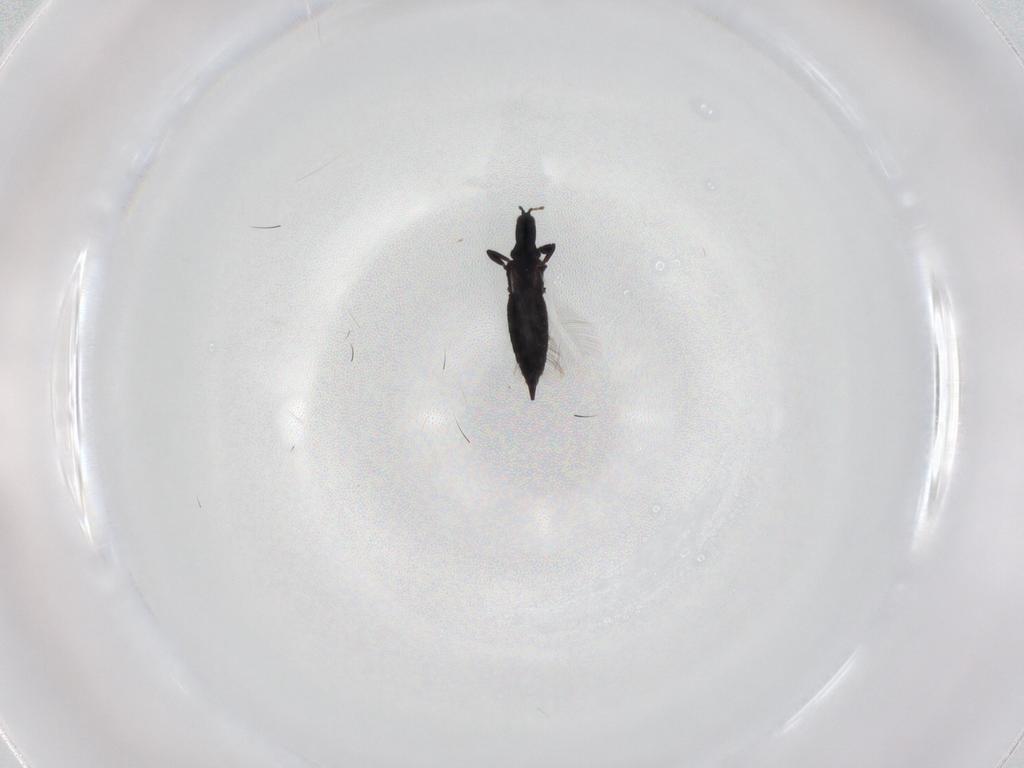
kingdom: Animalia
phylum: Arthropoda
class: Insecta
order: Thysanoptera
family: Phlaeothripidae
